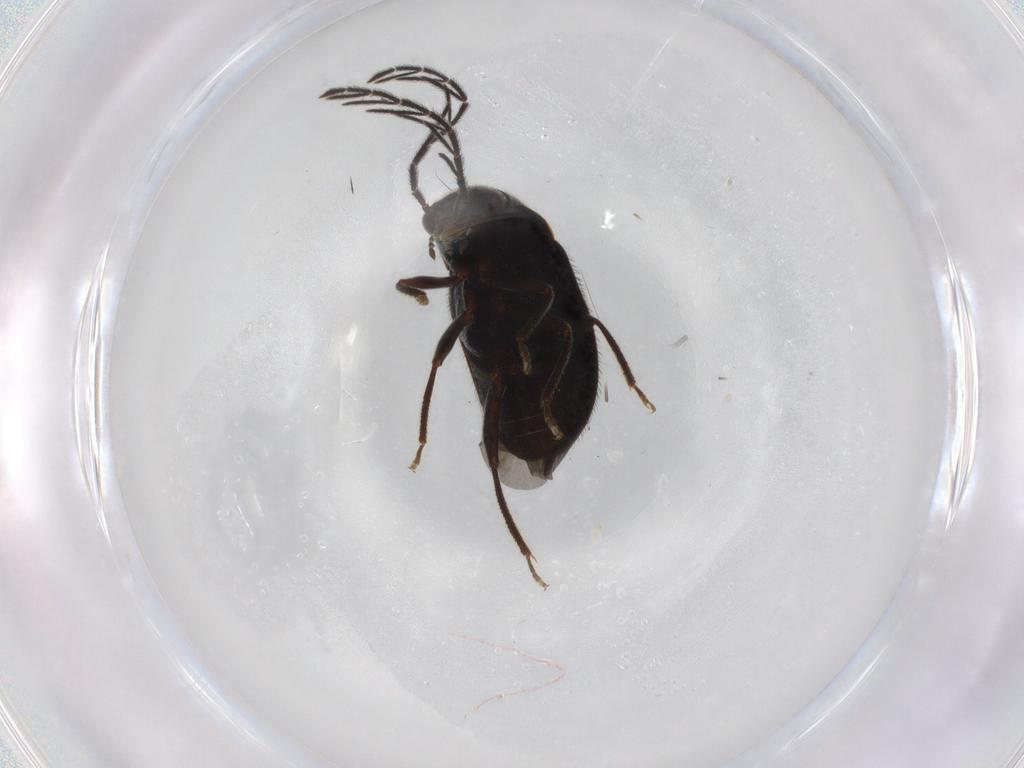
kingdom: Animalia
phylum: Arthropoda
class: Insecta
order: Coleoptera
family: Ptilodactylidae
